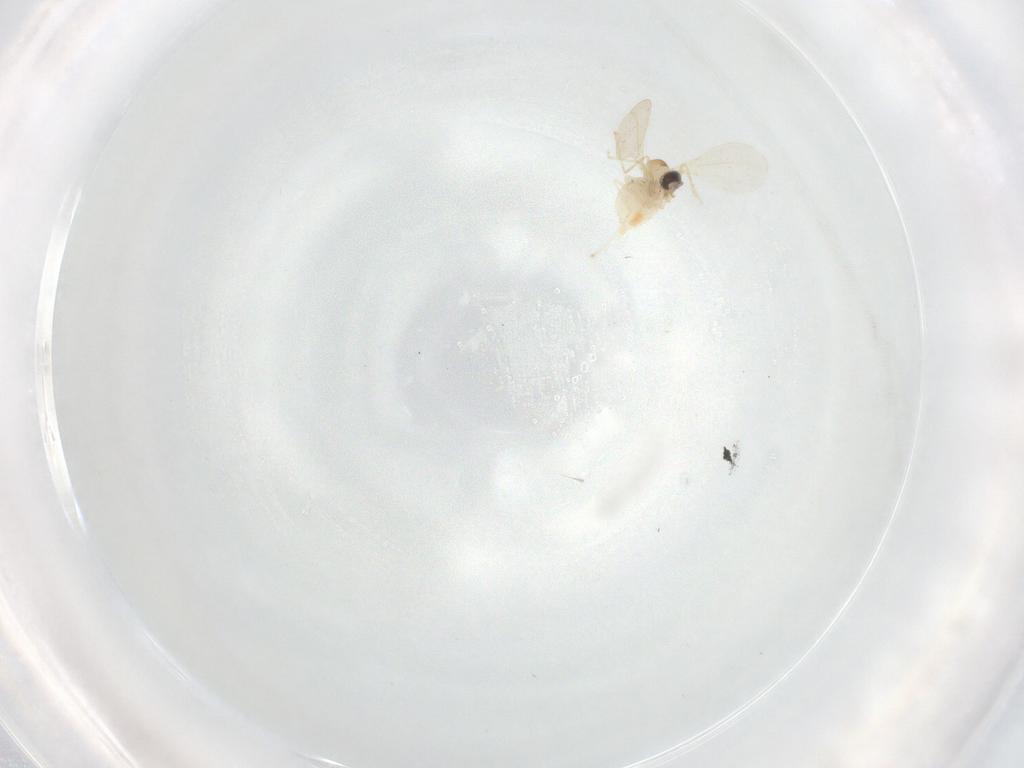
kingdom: Animalia
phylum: Arthropoda
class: Insecta
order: Diptera
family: Cecidomyiidae
